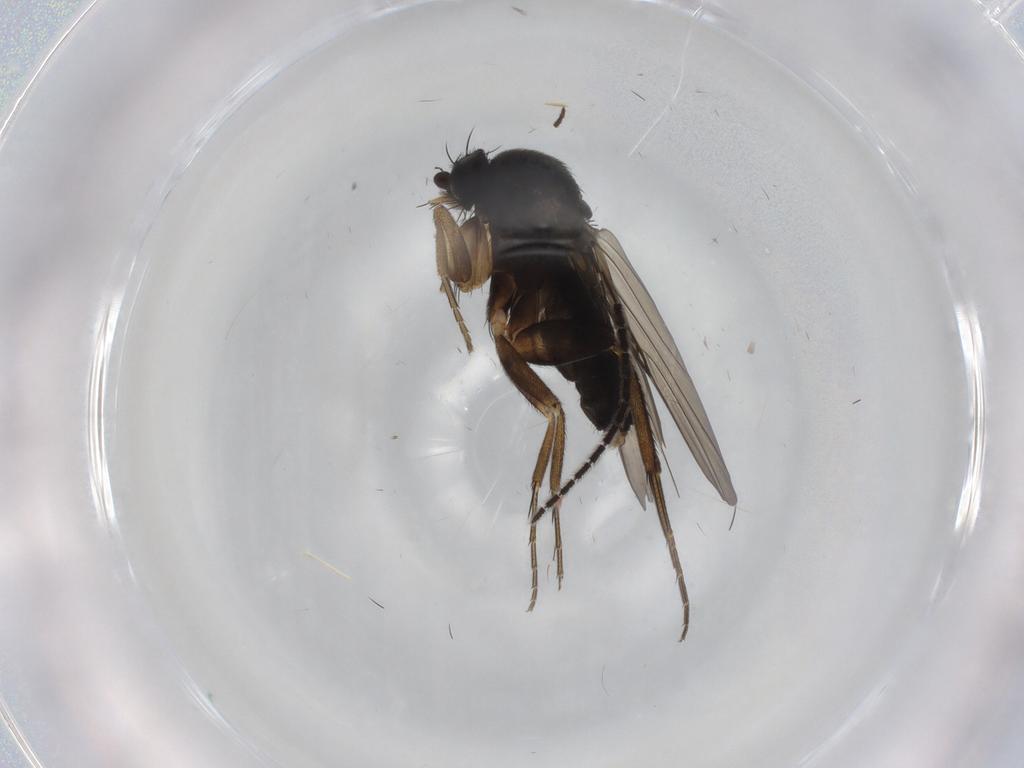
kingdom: Animalia
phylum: Arthropoda
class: Insecta
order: Diptera
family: Phoridae
